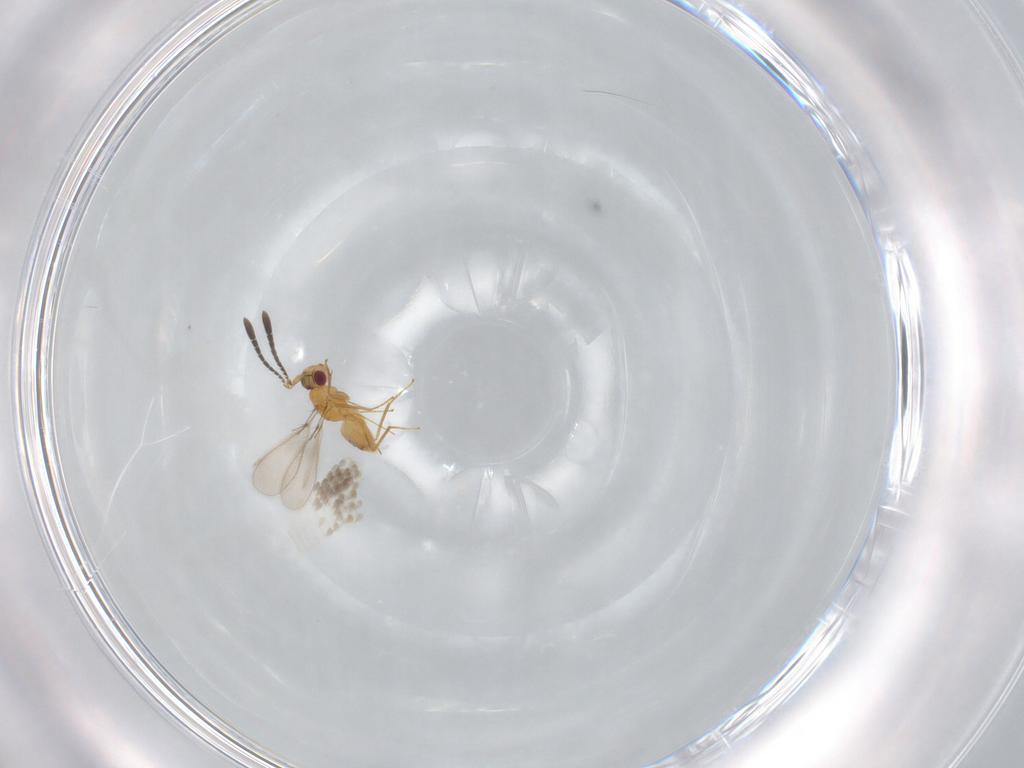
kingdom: Animalia
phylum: Arthropoda
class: Insecta
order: Hymenoptera
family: Mymaridae
